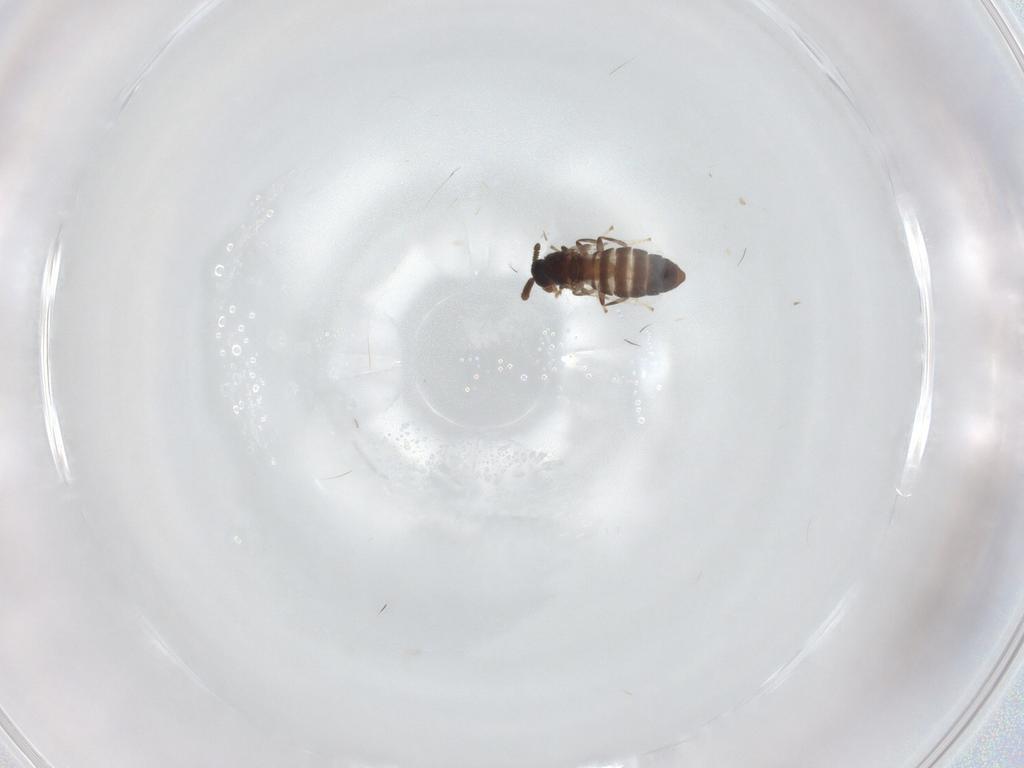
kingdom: Animalia
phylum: Arthropoda
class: Insecta
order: Diptera
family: Scatopsidae
